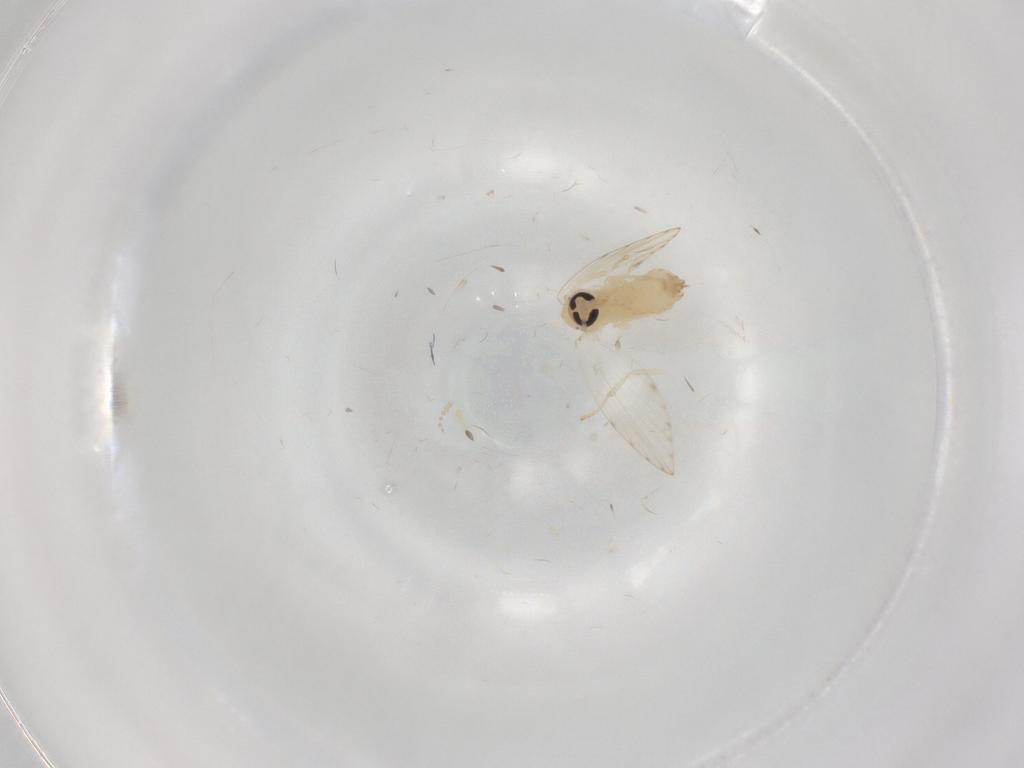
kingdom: Animalia
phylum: Arthropoda
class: Insecta
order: Diptera
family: Psychodidae
